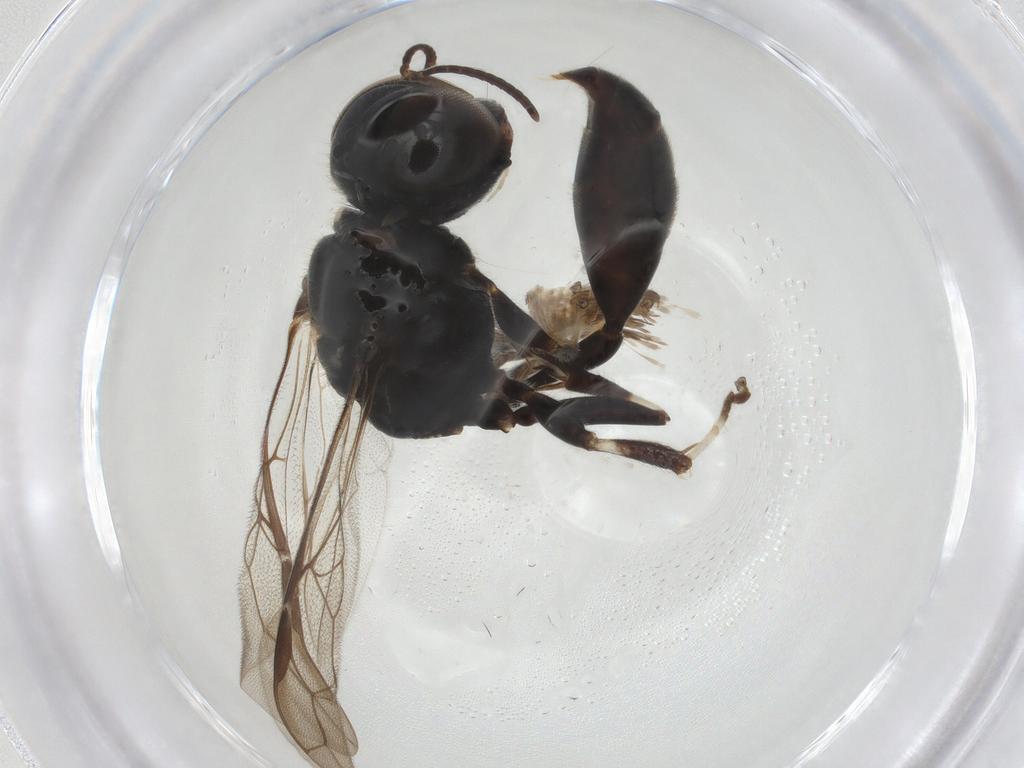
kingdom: Animalia
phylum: Arthropoda
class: Insecta
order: Hymenoptera
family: Crabronidae
